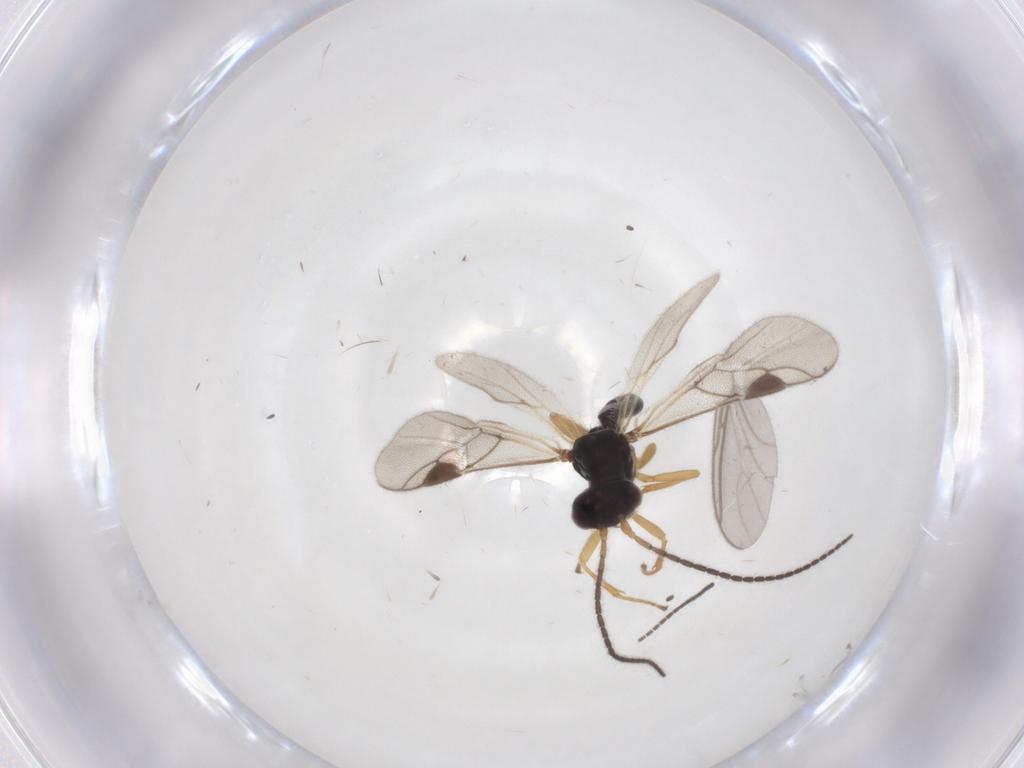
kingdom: Animalia
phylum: Arthropoda
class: Insecta
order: Hymenoptera
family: Braconidae
